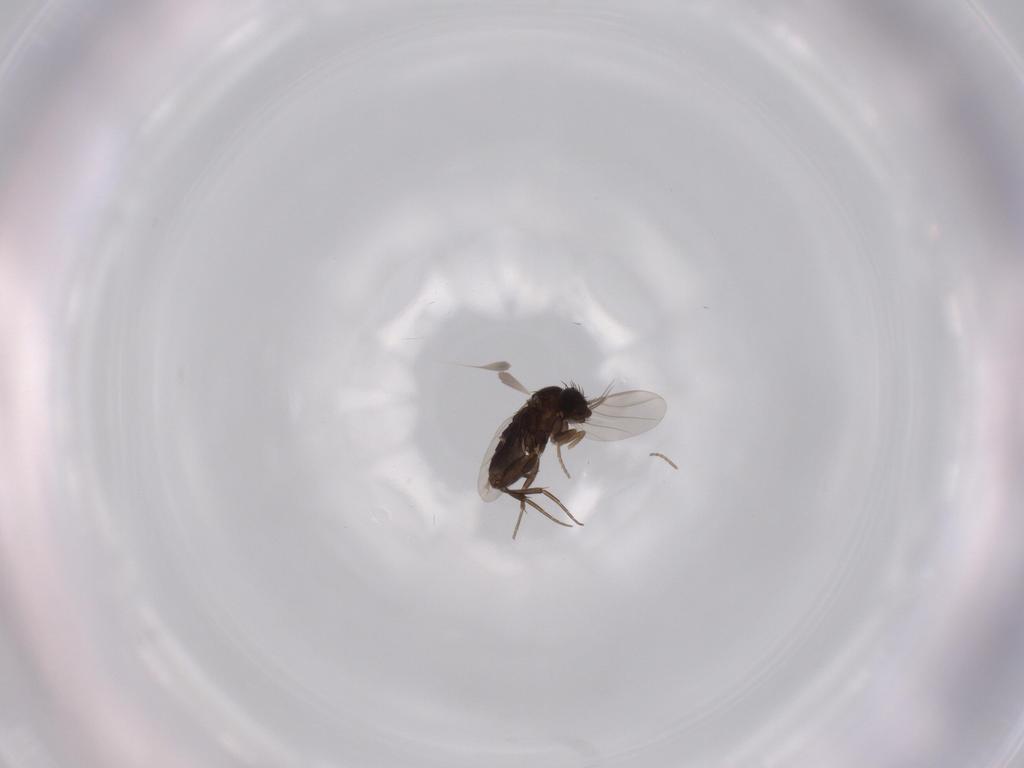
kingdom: Animalia
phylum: Arthropoda
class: Insecta
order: Diptera
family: Phoridae
